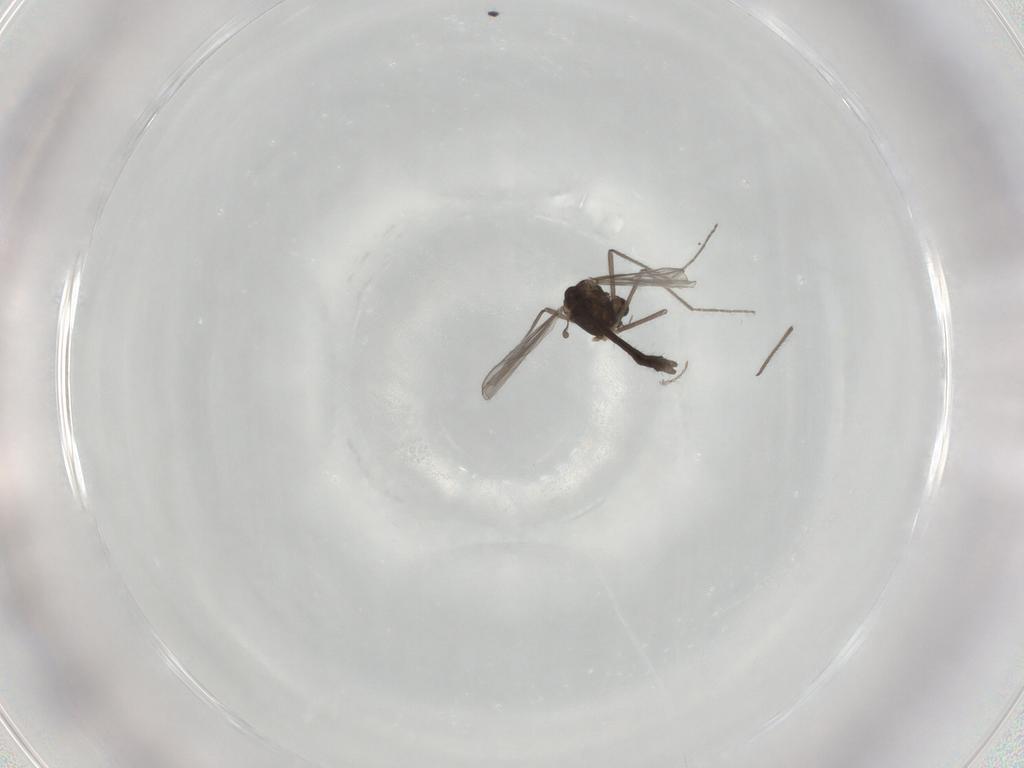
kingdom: Animalia
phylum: Arthropoda
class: Insecta
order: Diptera
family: Chironomidae
